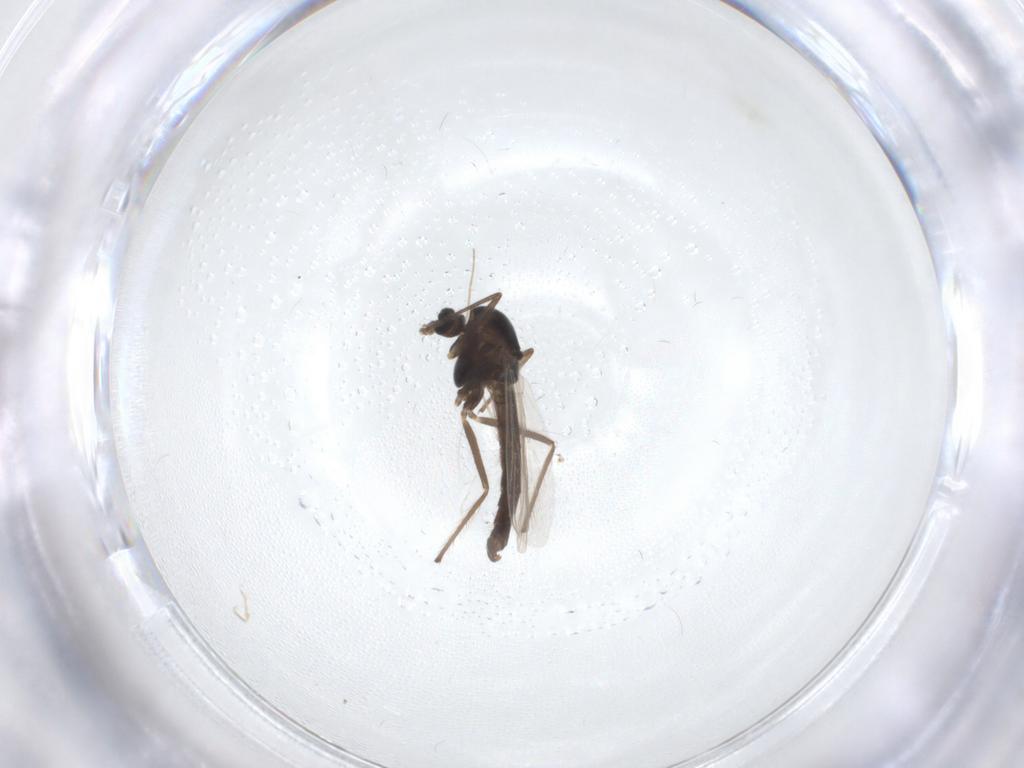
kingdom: Animalia
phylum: Arthropoda
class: Insecta
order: Diptera
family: Chironomidae
